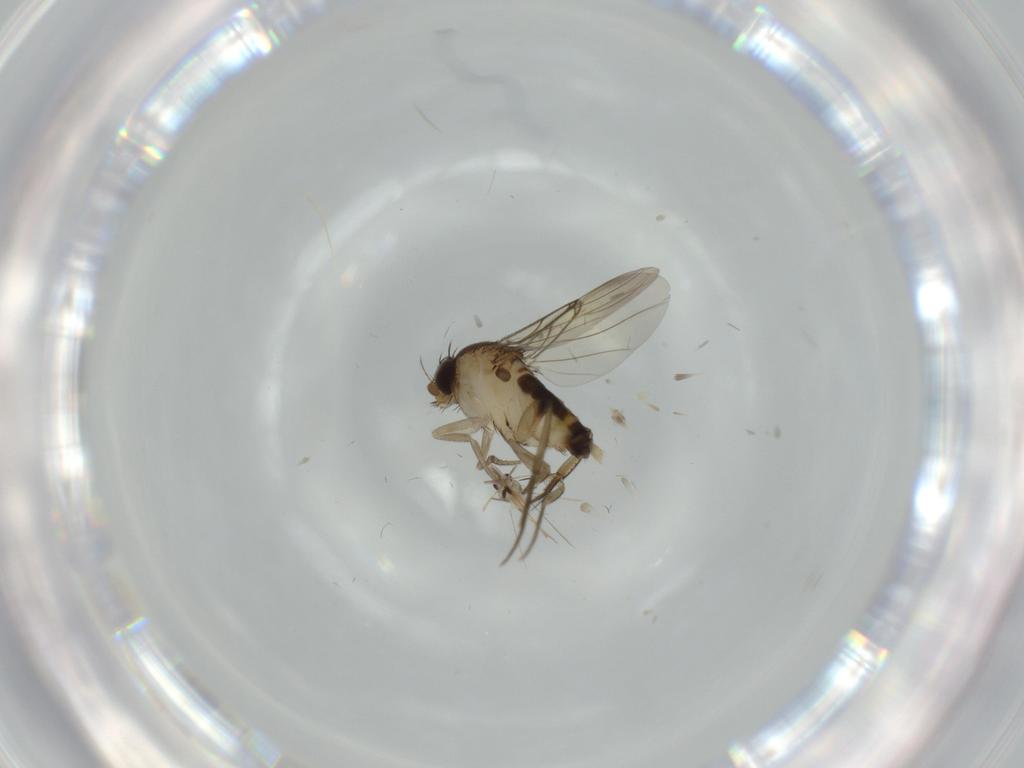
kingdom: Animalia
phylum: Arthropoda
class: Insecta
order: Diptera
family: Phoridae
